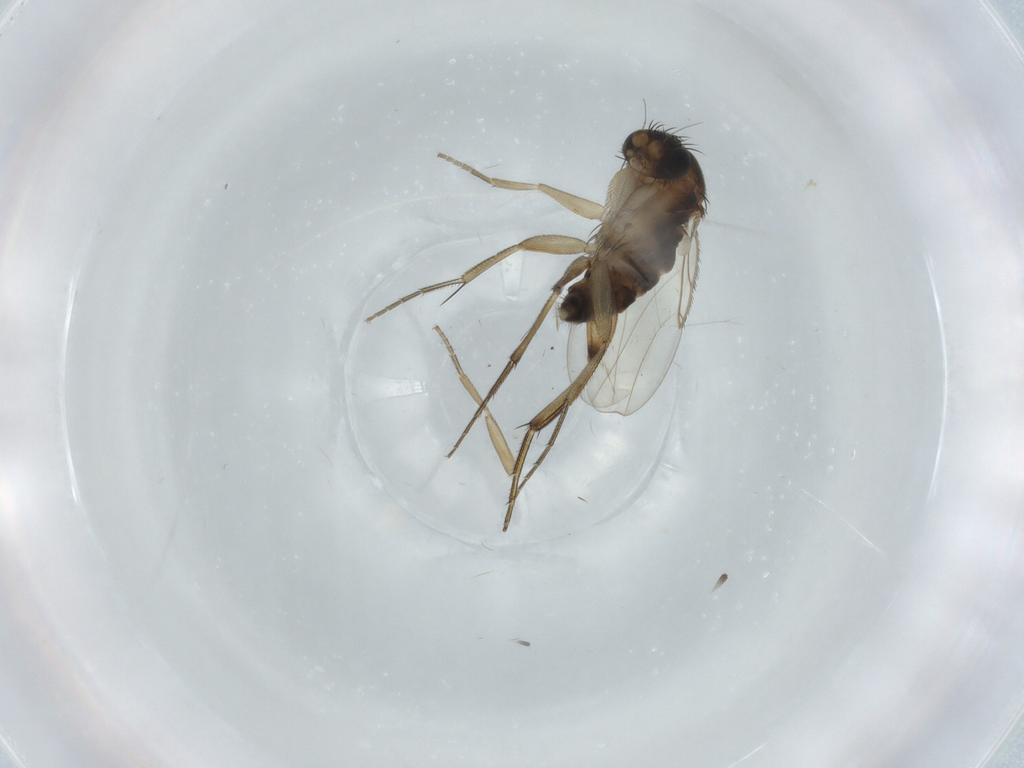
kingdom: Animalia
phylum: Arthropoda
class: Insecta
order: Diptera
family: Phoridae
